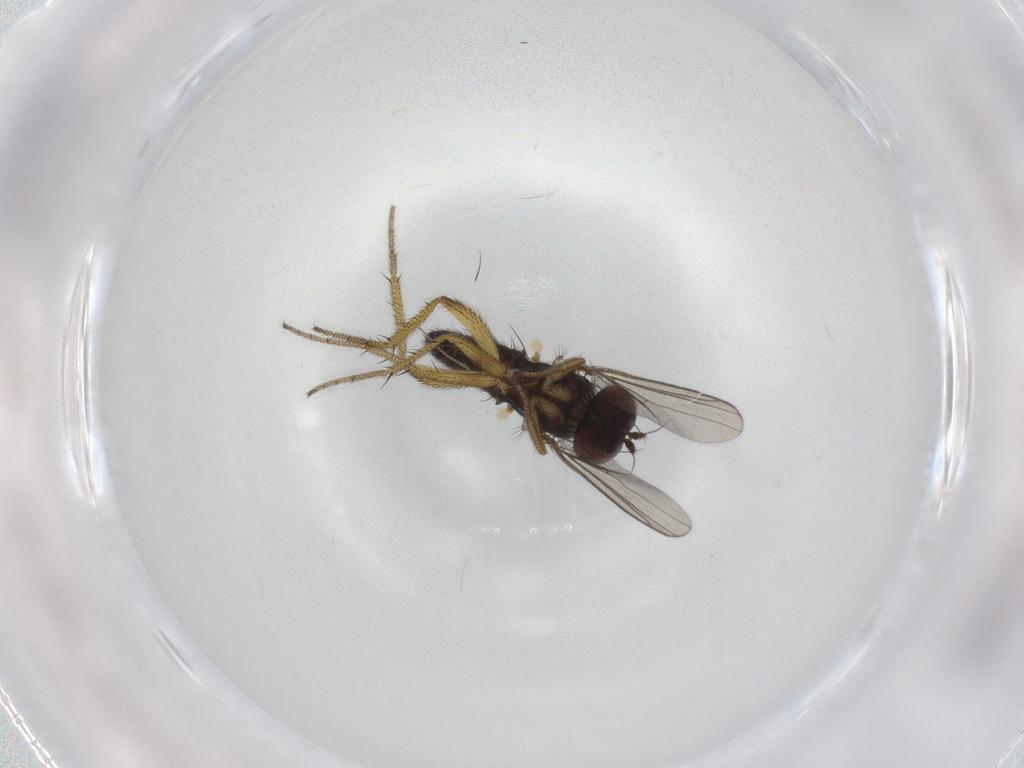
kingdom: Animalia
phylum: Arthropoda
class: Insecta
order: Diptera
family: Dolichopodidae
